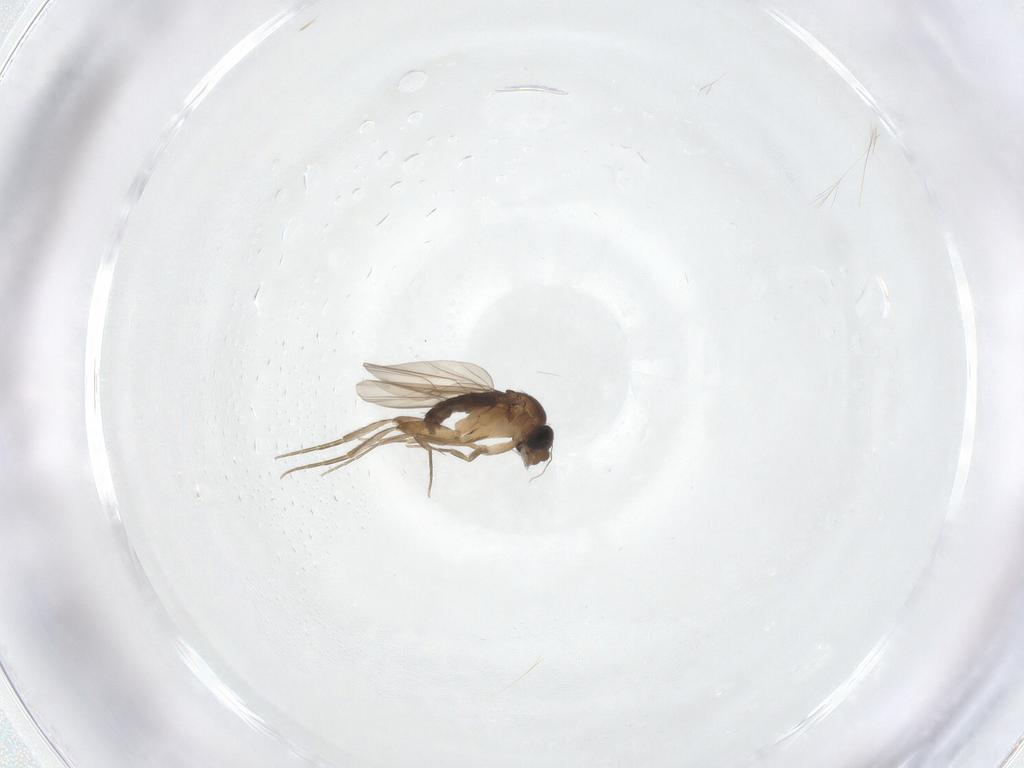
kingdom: Animalia
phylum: Arthropoda
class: Insecta
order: Diptera
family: Phoridae
